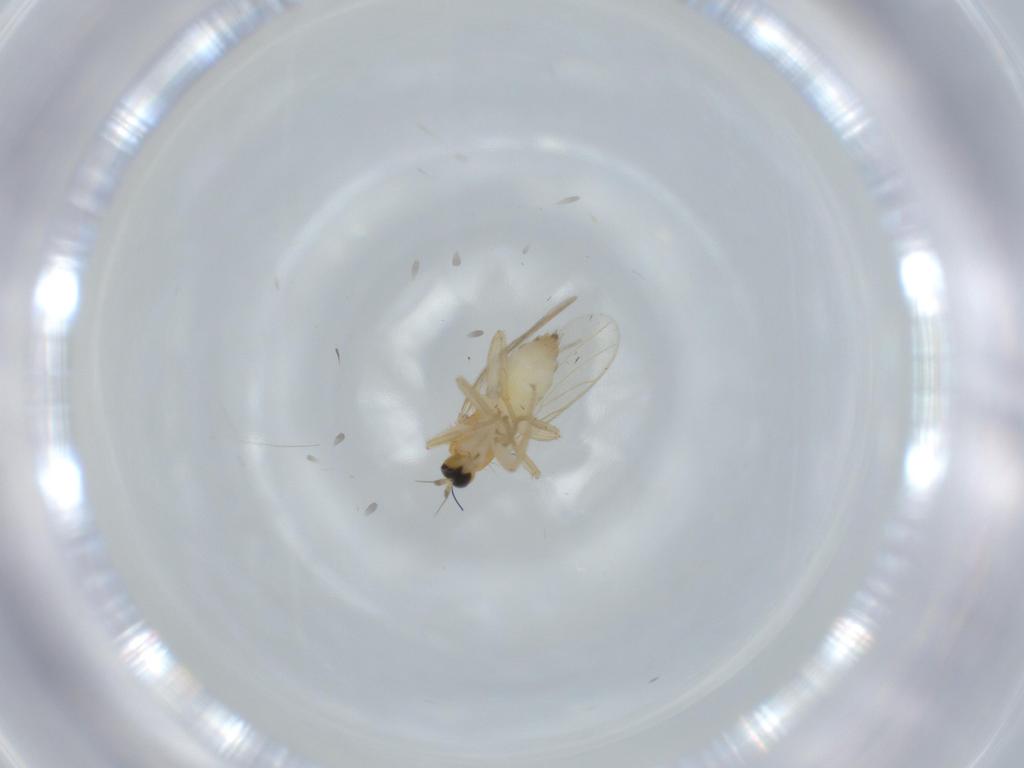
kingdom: Animalia
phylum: Arthropoda
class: Insecta
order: Diptera
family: Hybotidae
